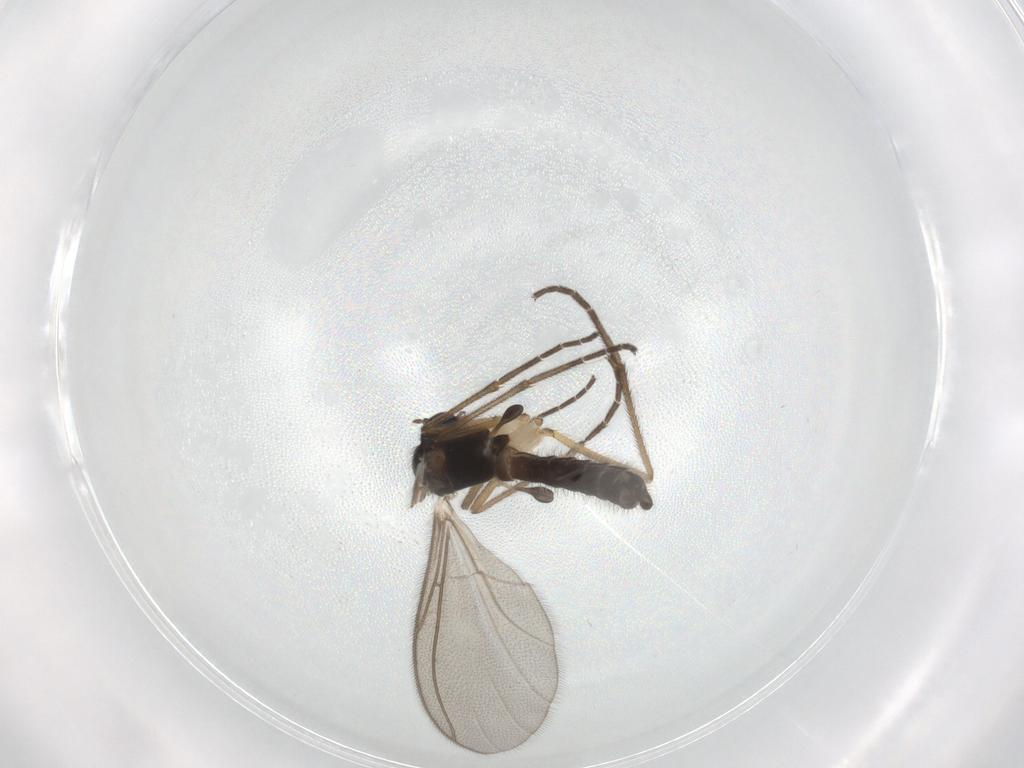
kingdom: Animalia
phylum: Arthropoda
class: Insecta
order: Diptera
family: Mycetophilidae
